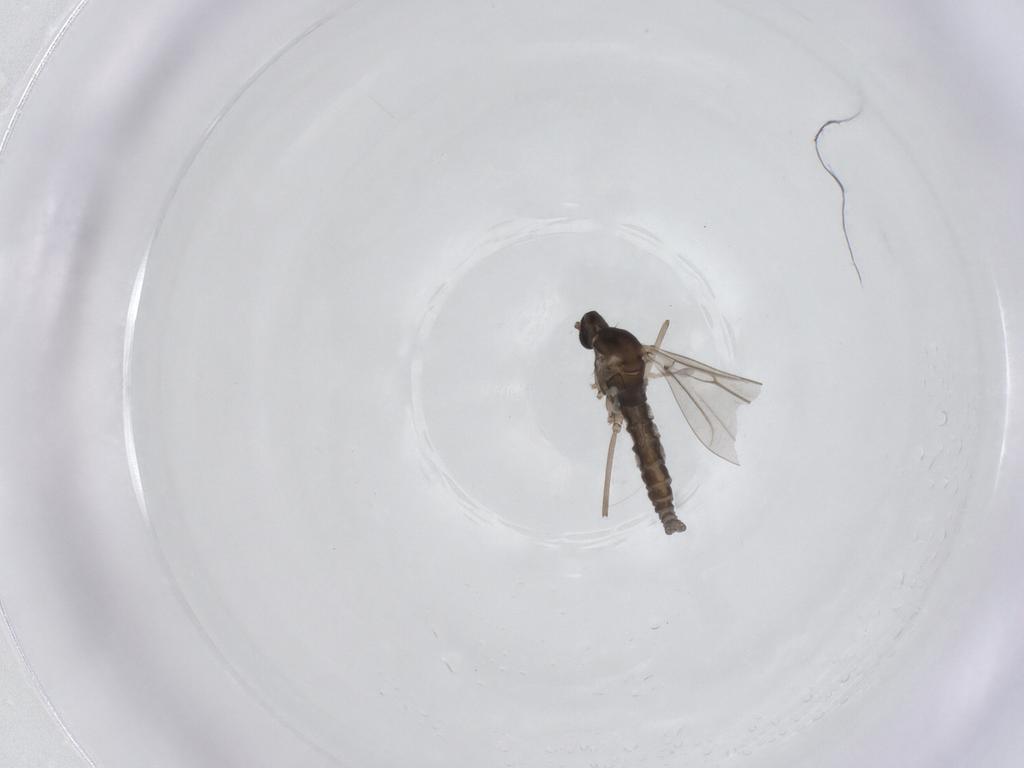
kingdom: Animalia
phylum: Arthropoda
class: Insecta
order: Diptera
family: Cecidomyiidae
